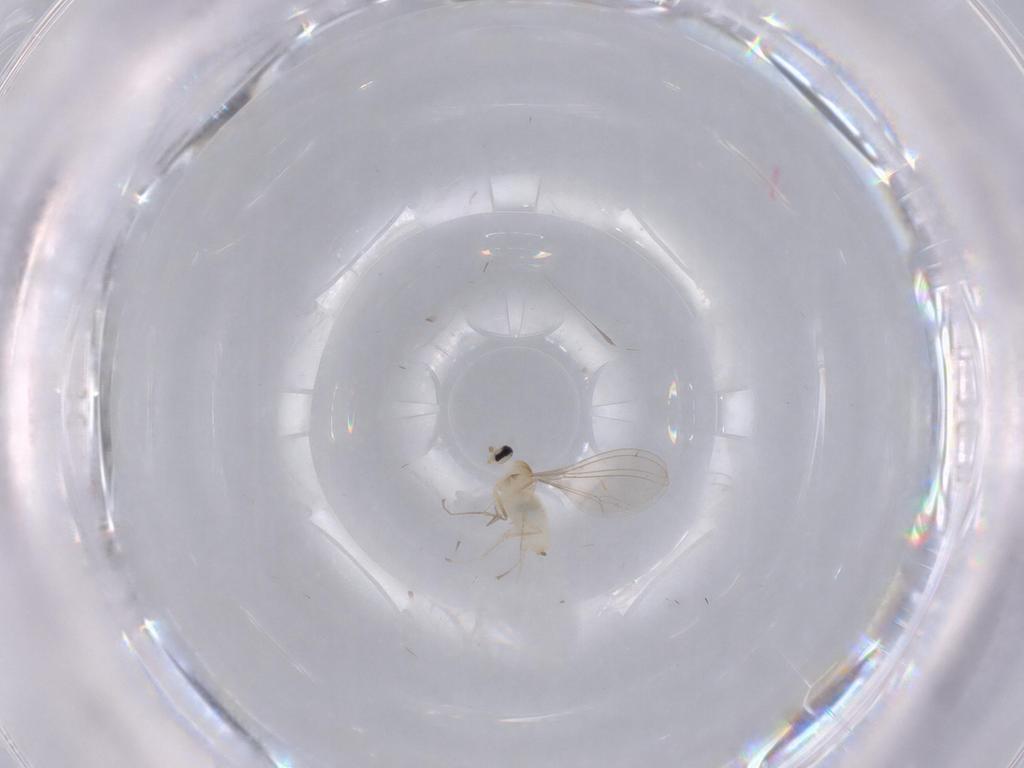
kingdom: Animalia
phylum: Arthropoda
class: Insecta
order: Diptera
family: Cecidomyiidae
